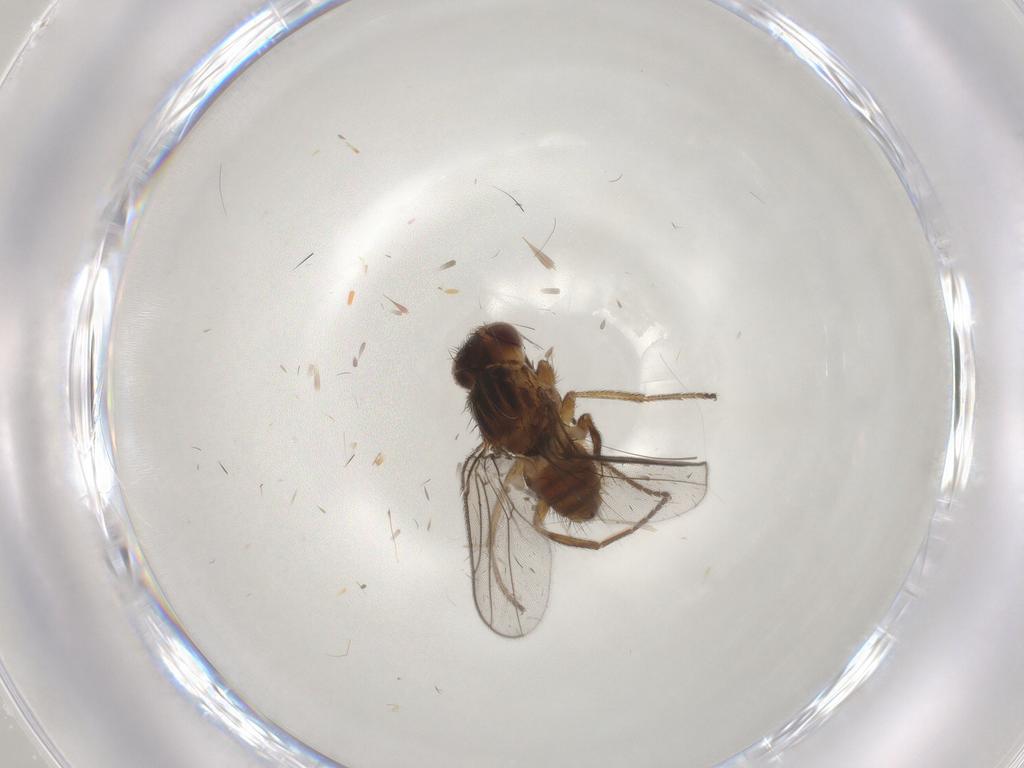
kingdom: Animalia
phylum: Arthropoda
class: Insecta
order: Diptera
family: Chloropidae
